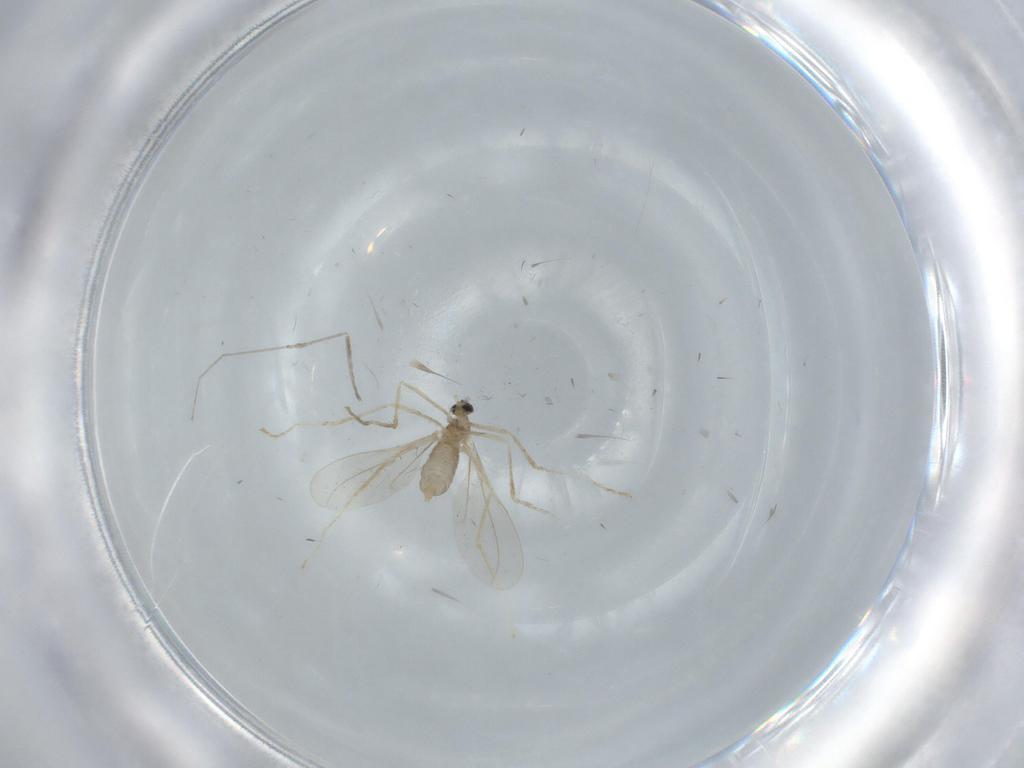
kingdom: Animalia
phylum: Arthropoda
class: Insecta
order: Diptera
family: Cecidomyiidae
